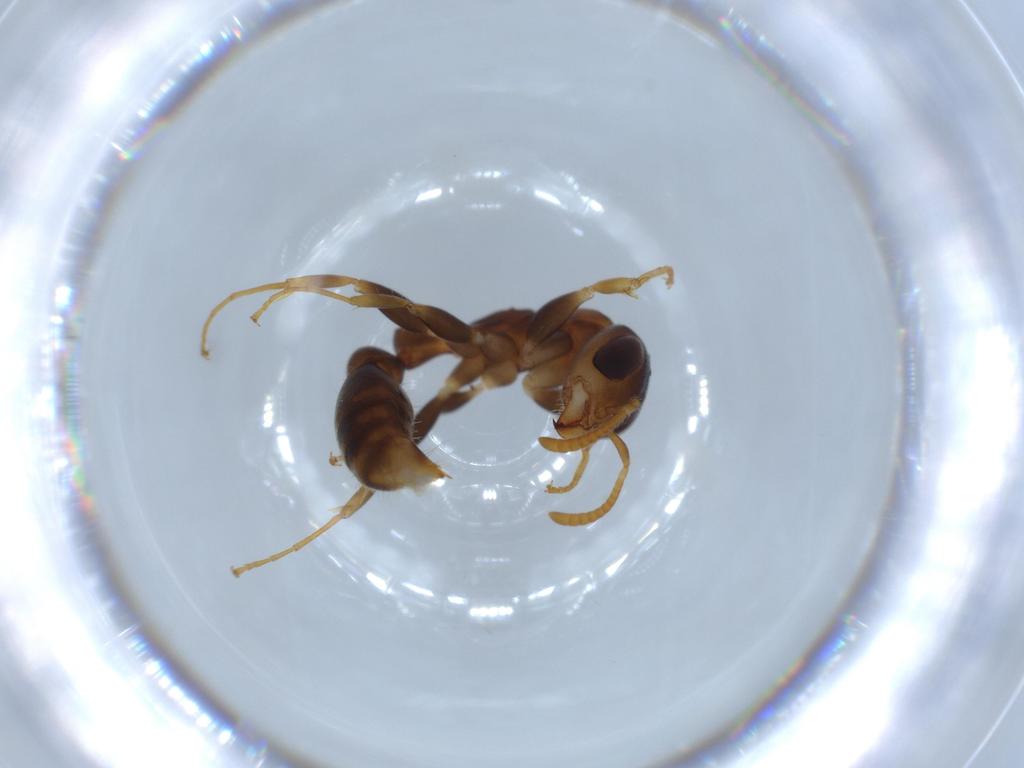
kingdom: Animalia
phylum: Arthropoda
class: Insecta
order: Hymenoptera
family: Formicidae
